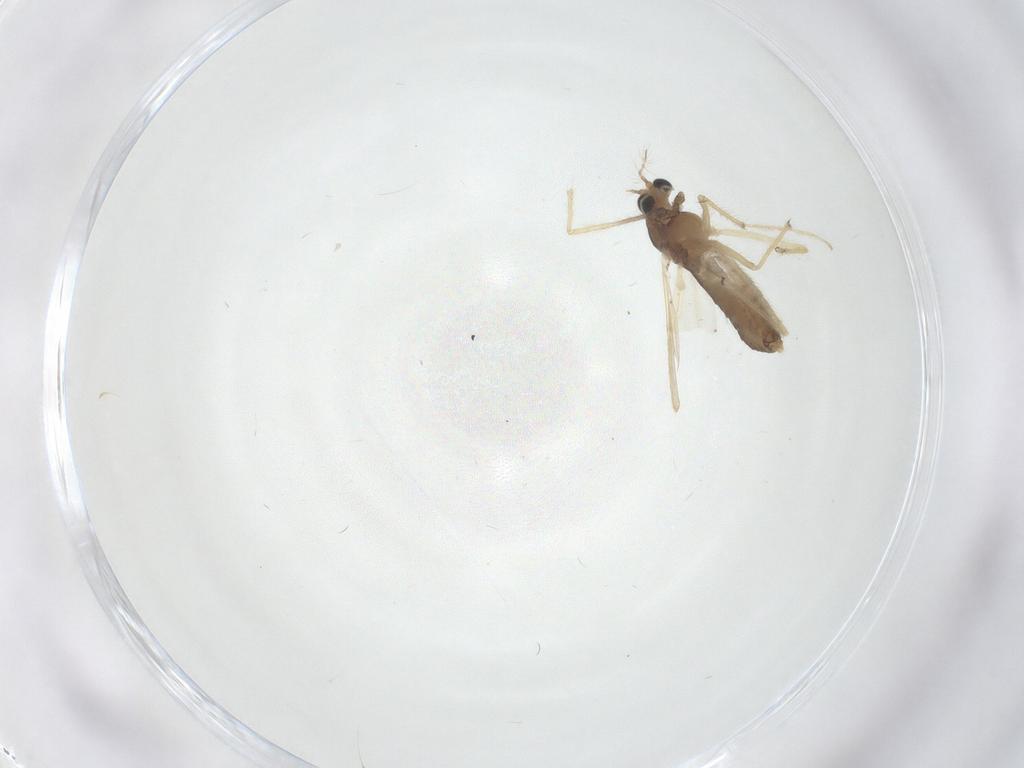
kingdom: Animalia
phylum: Arthropoda
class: Insecta
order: Diptera
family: Chironomidae
